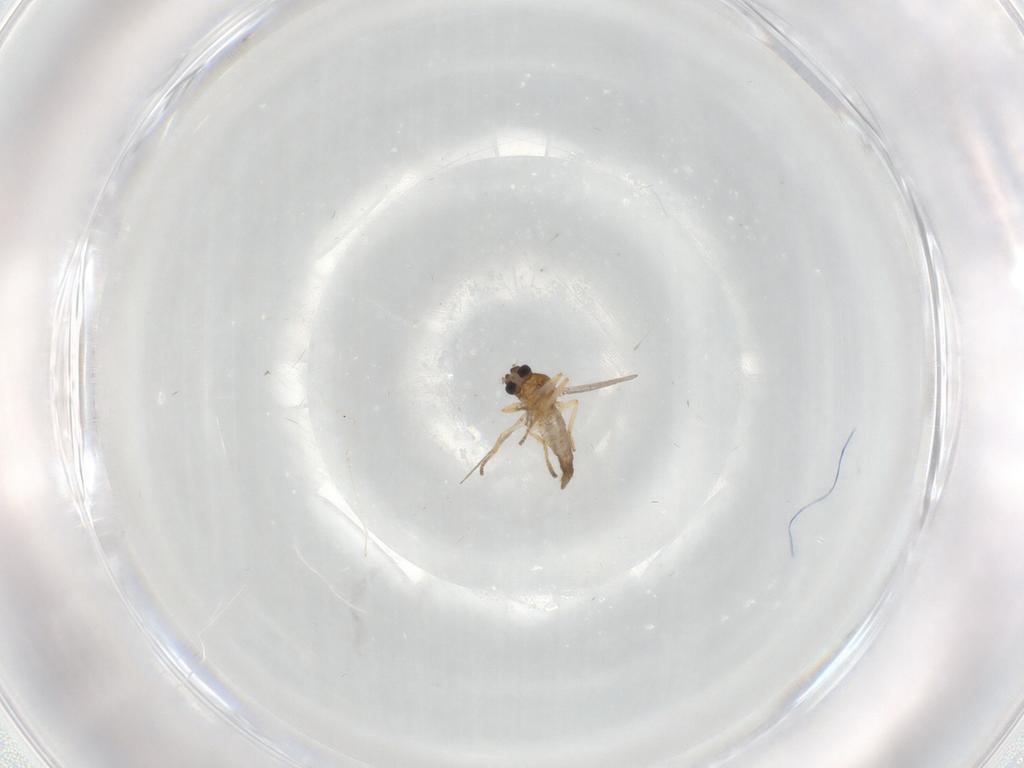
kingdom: Animalia
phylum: Arthropoda
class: Insecta
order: Diptera
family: Ceratopogonidae
